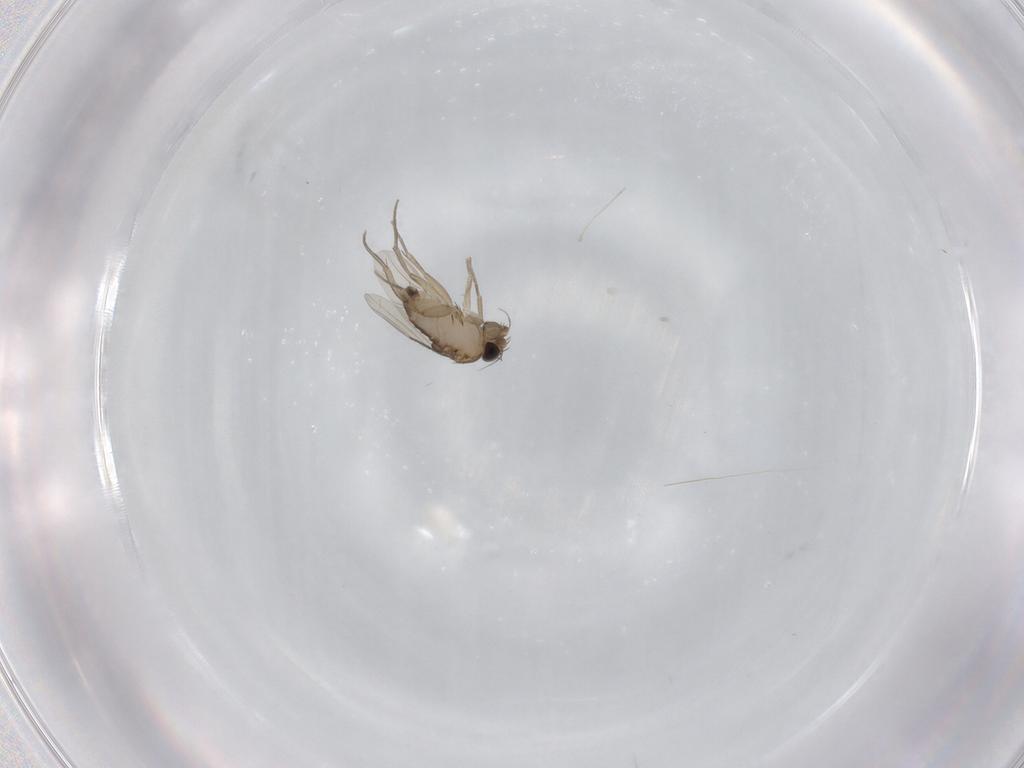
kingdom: Animalia
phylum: Arthropoda
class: Insecta
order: Diptera
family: Phoridae
